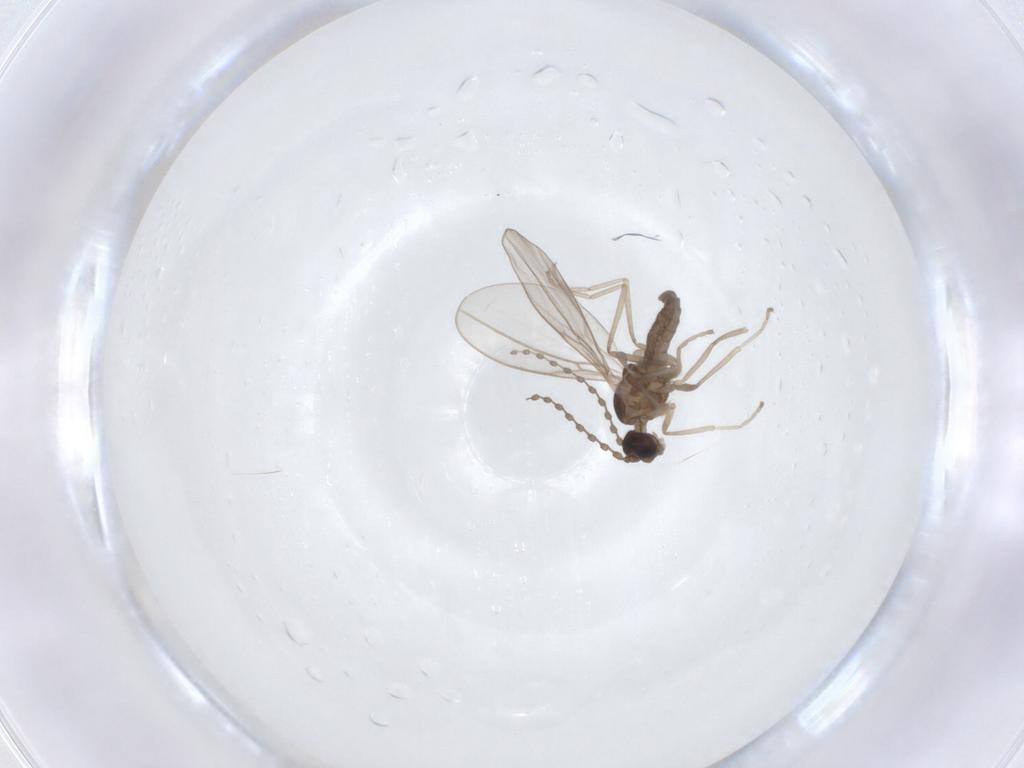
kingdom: Animalia
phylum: Arthropoda
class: Insecta
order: Diptera
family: Cecidomyiidae
